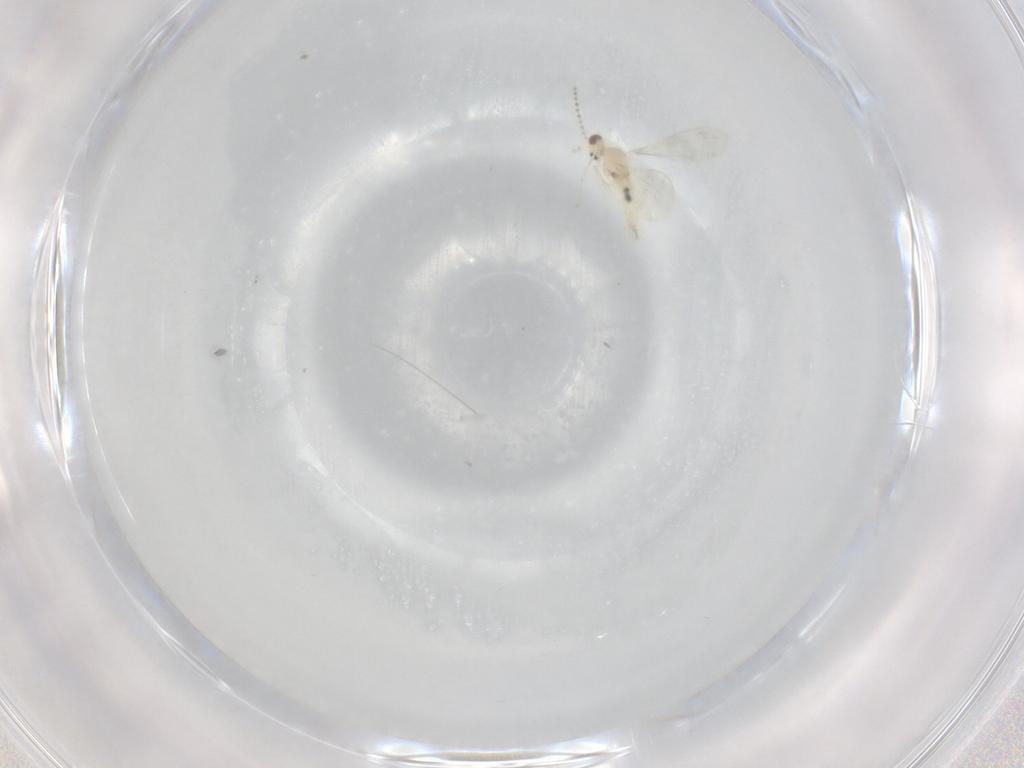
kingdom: Animalia
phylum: Arthropoda
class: Insecta
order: Diptera
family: Cecidomyiidae
